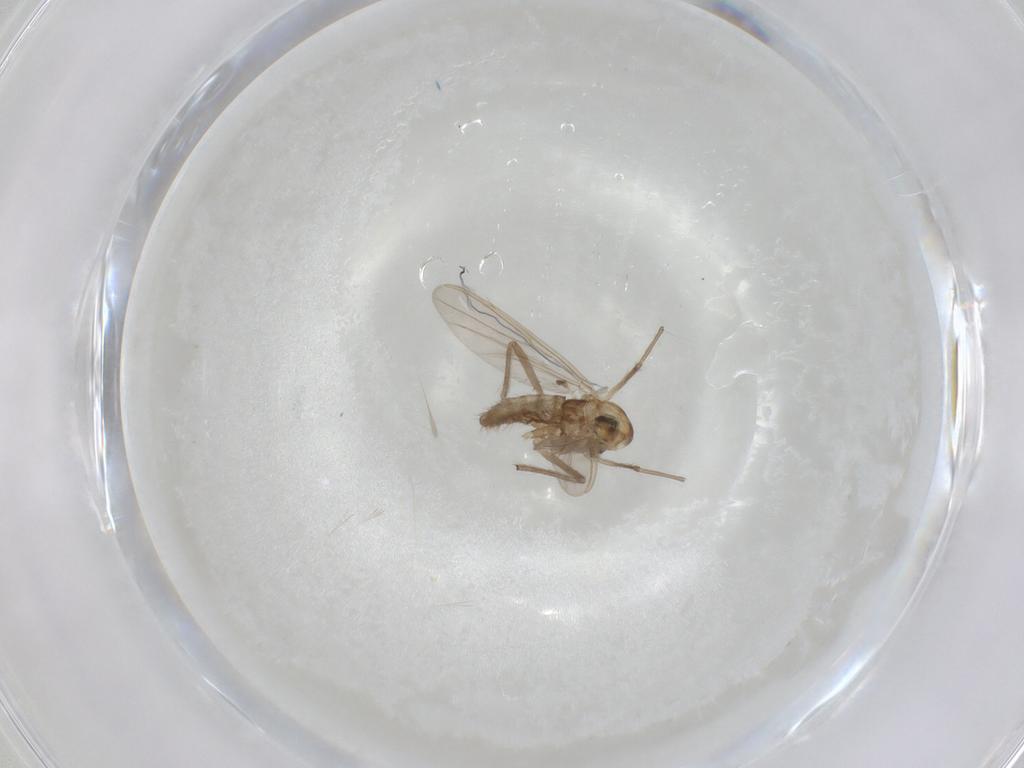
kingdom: Animalia
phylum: Arthropoda
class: Insecta
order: Diptera
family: Chironomidae
